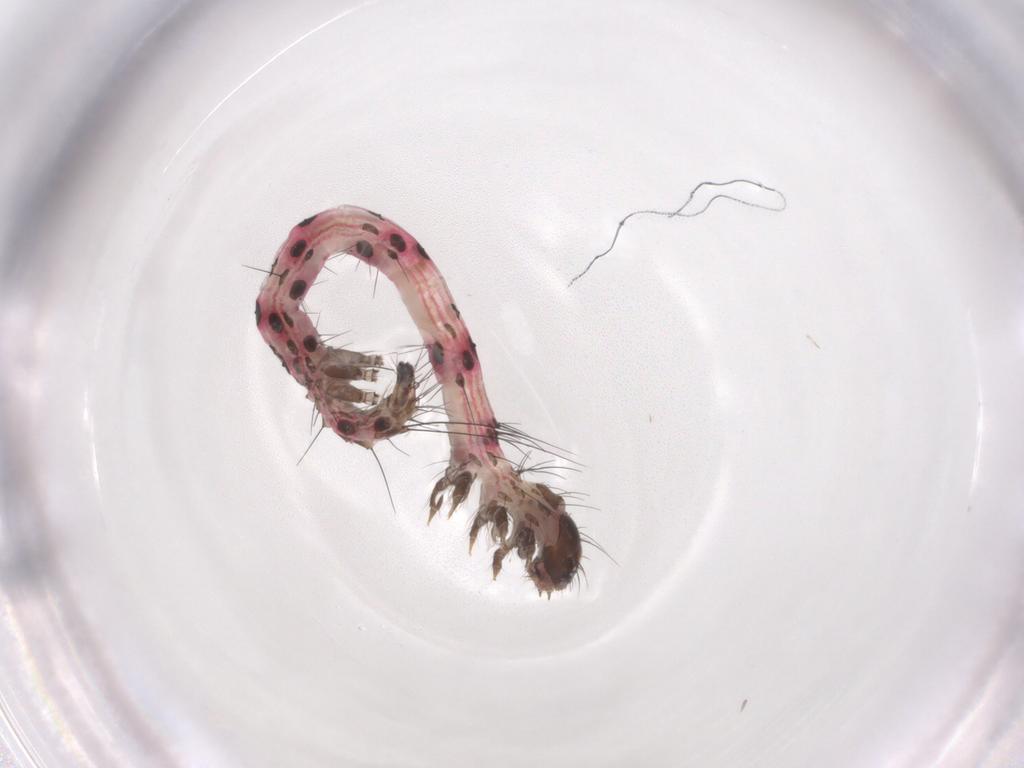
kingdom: Animalia
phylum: Arthropoda
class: Insecta
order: Lepidoptera
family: Erebidae
